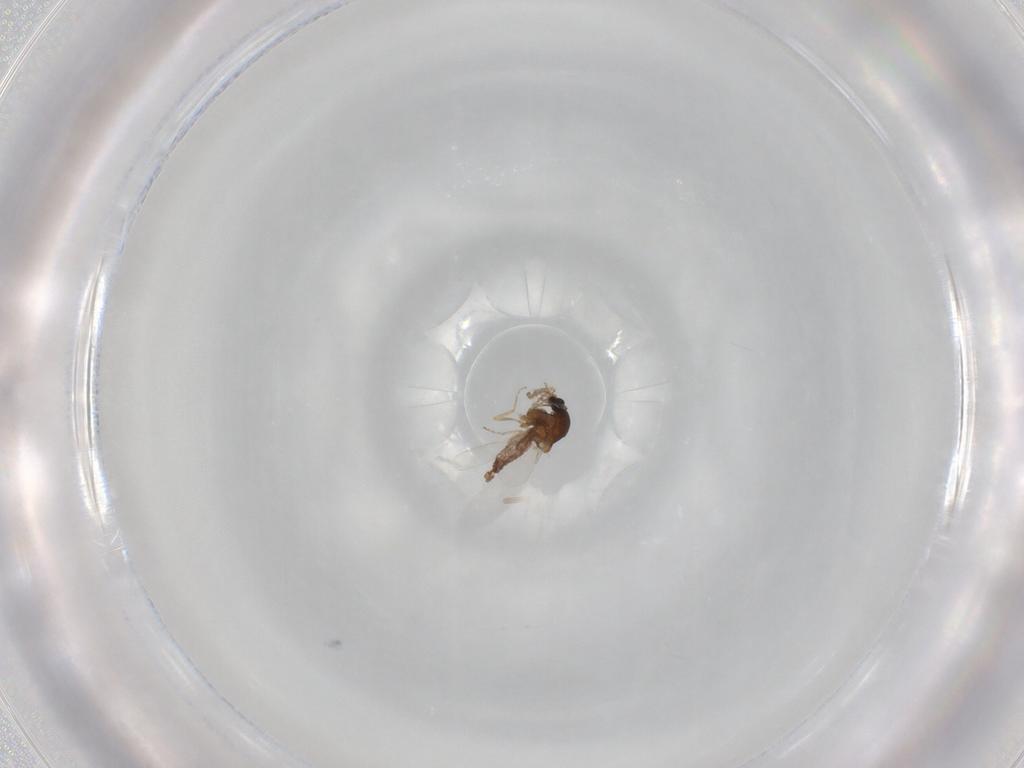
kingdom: Animalia
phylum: Arthropoda
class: Insecta
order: Diptera
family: Ceratopogonidae
